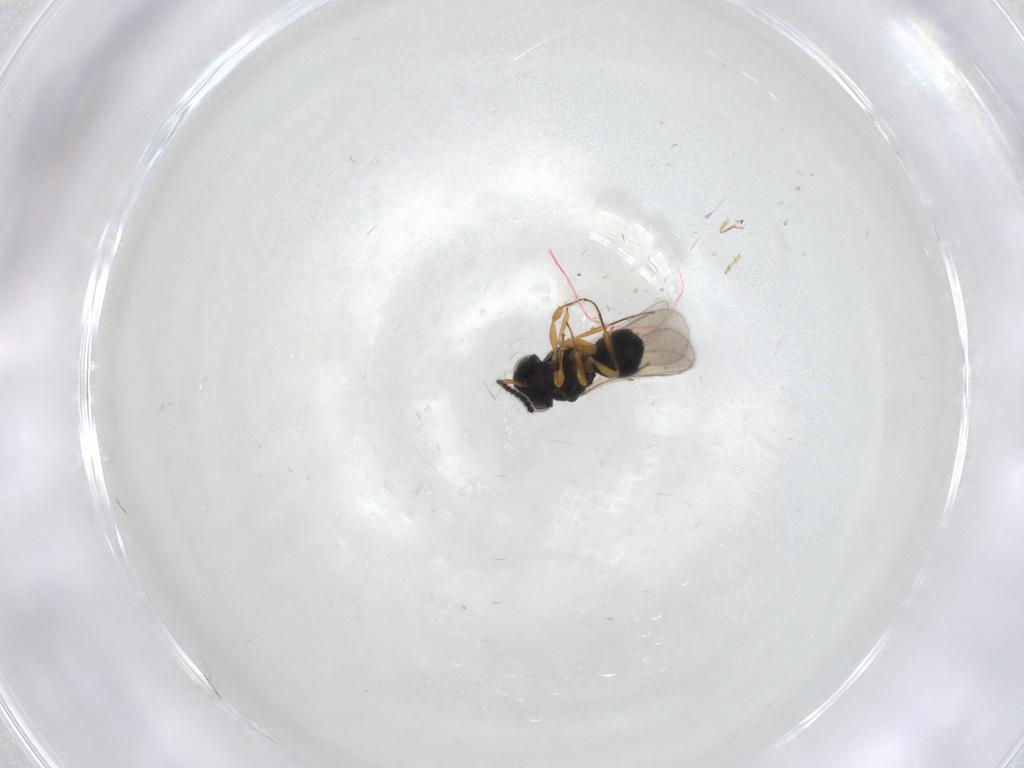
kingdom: Animalia
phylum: Arthropoda
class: Insecta
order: Hymenoptera
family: Scelionidae
